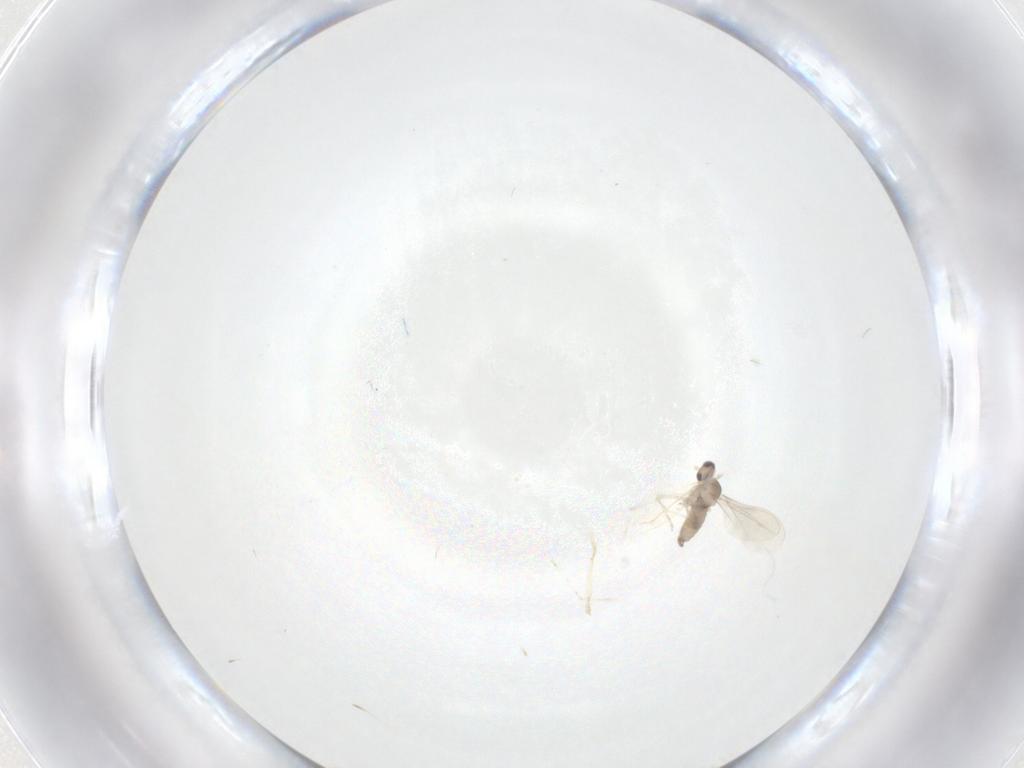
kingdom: Animalia
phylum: Arthropoda
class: Insecta
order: Diptera
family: Cecidomyiidae
